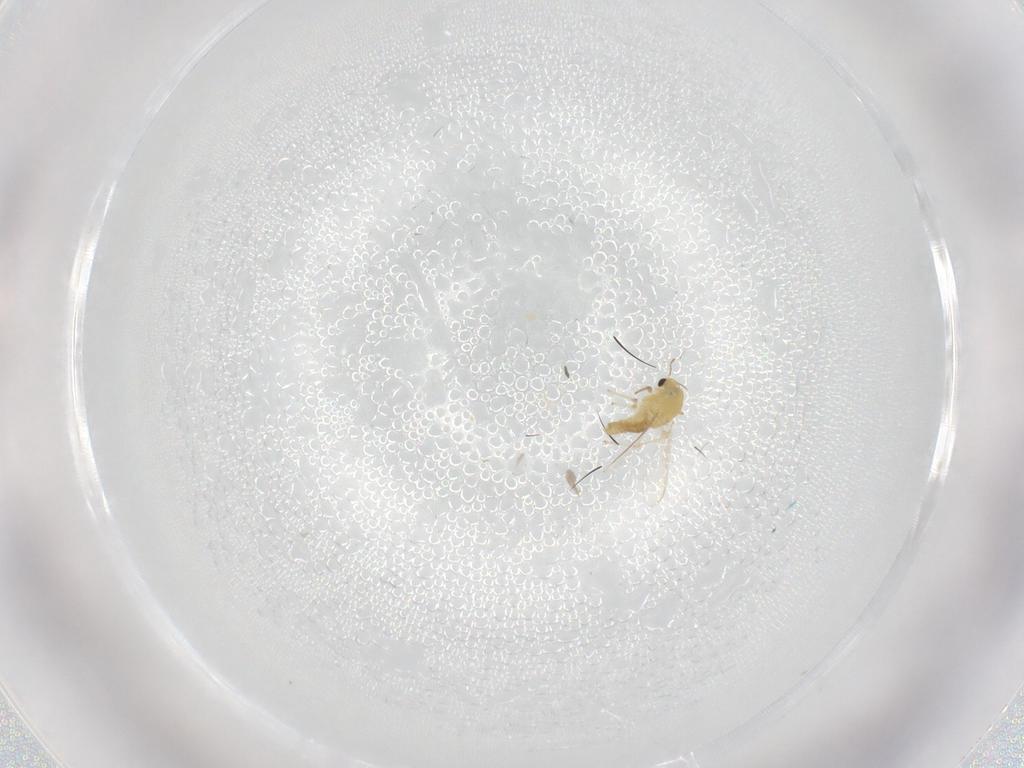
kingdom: Animalia
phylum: Arthropoda
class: Insecta
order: Diptera
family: Chironomidae
